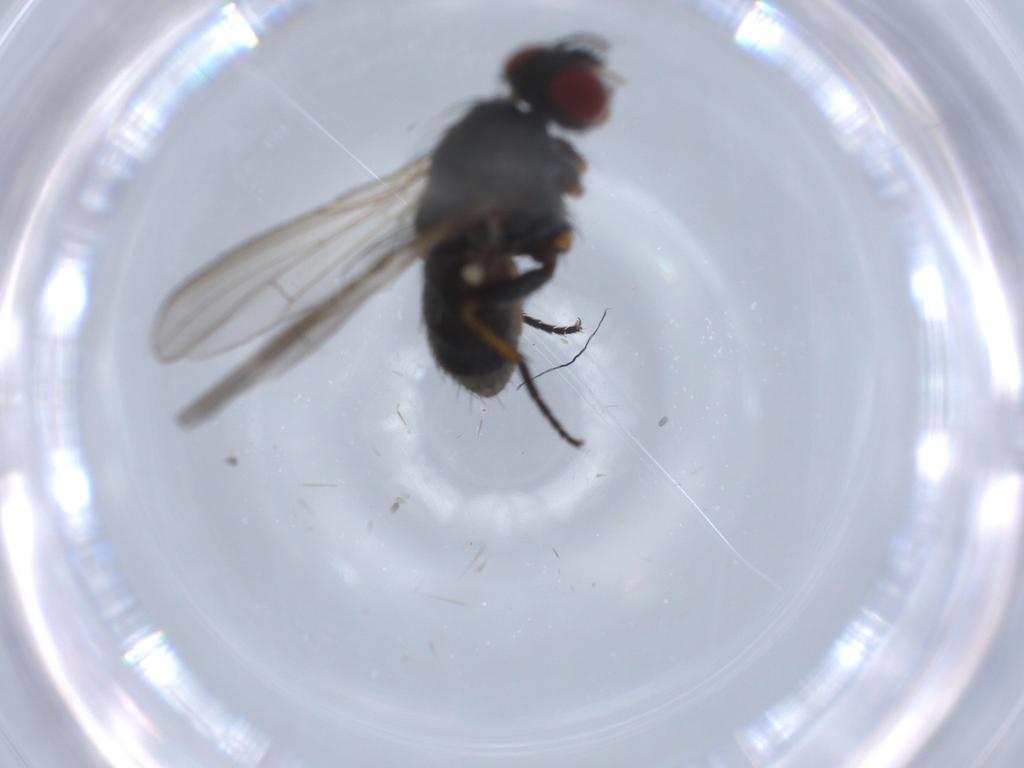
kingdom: Animalia
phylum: Arthropoda
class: Insecta
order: Diptera
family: Muscidae
